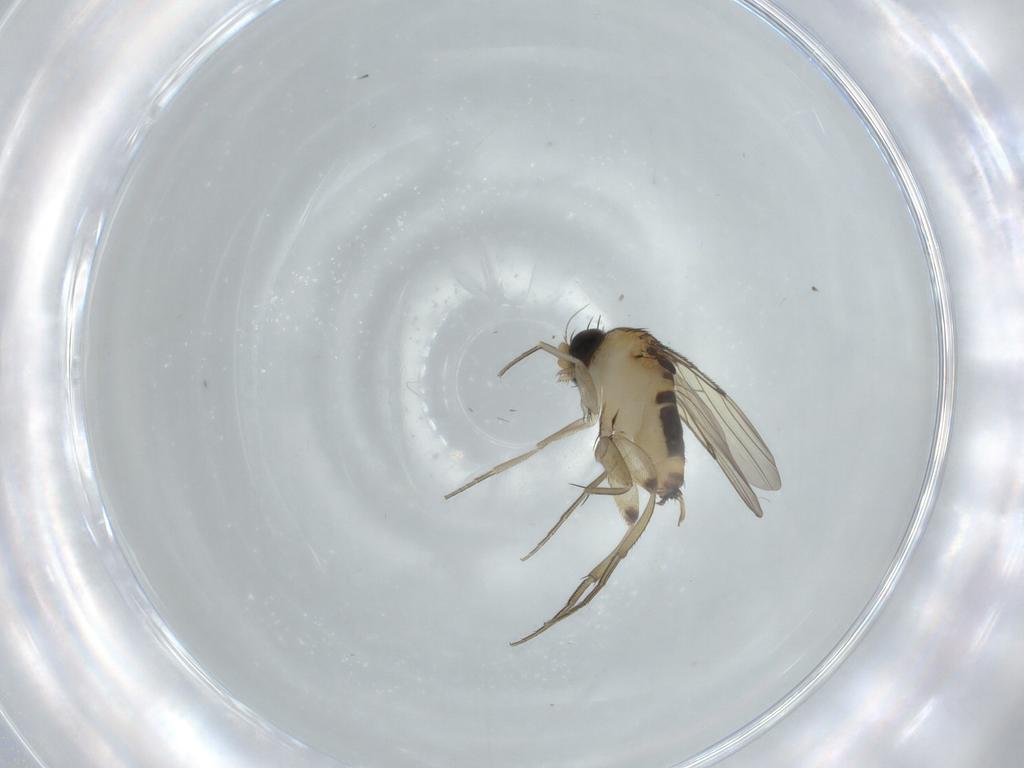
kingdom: Animalia
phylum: Arthropoda
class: Insecta
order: Diptera
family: Phoridae
